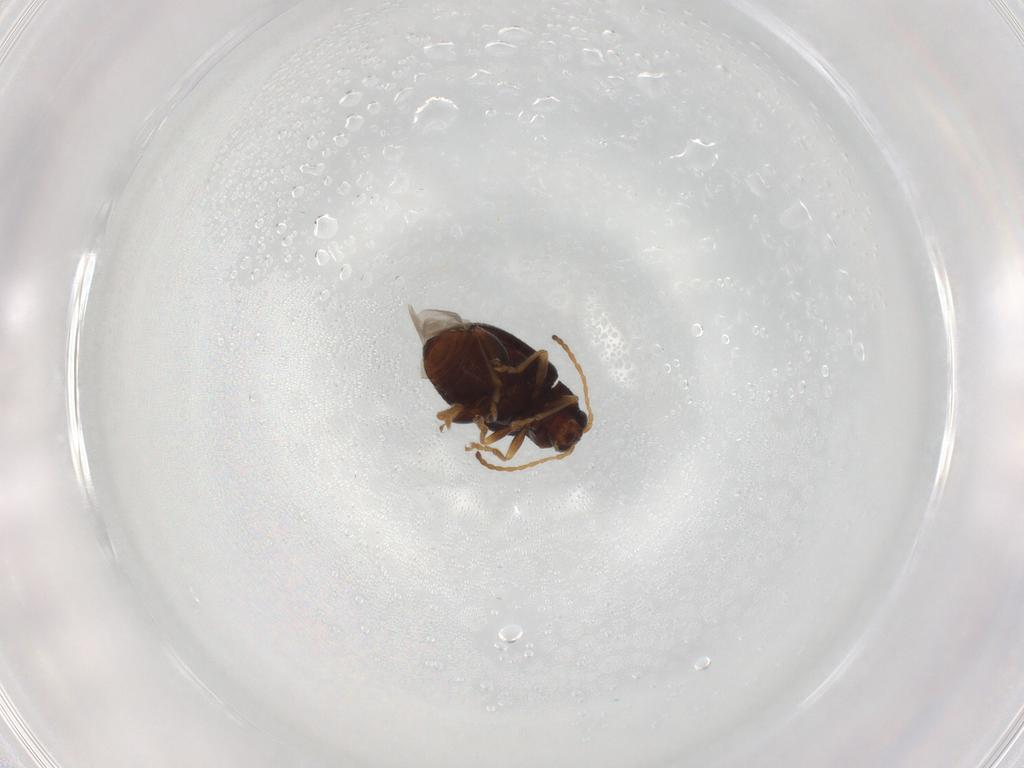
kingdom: Animalia
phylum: Arthropoda
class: Insecta
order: Coleoptera
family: Chrysomelidae
